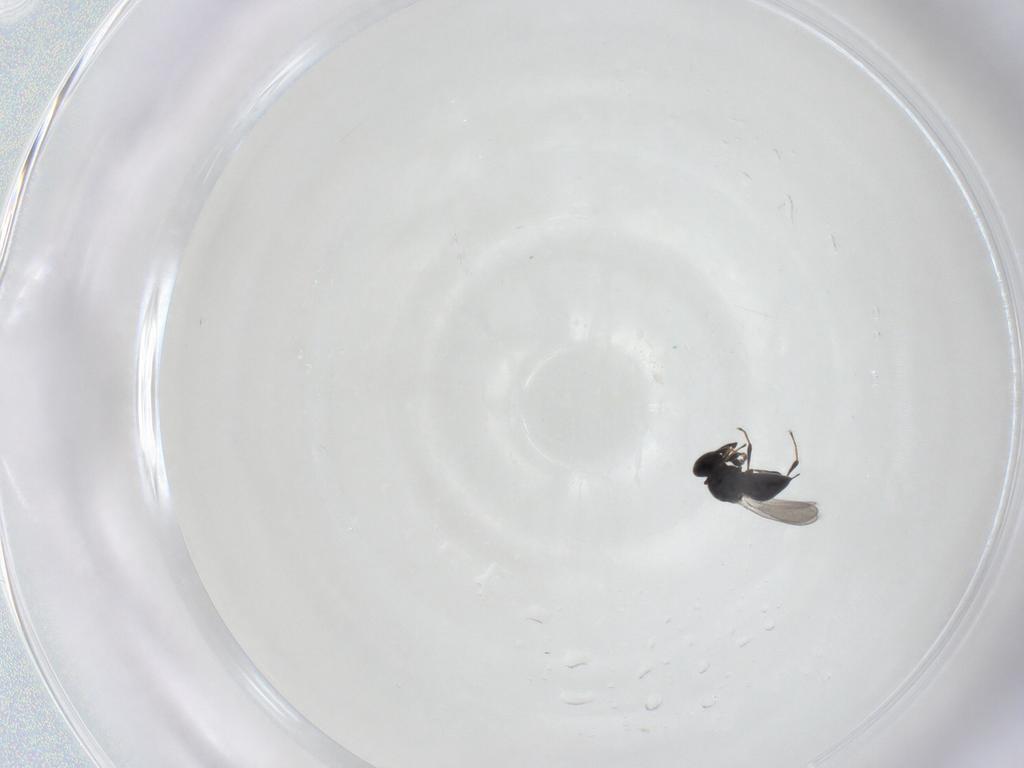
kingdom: Animalia
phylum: Arthropoda
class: Insecta
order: Hymenoptera
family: Platygastridae
